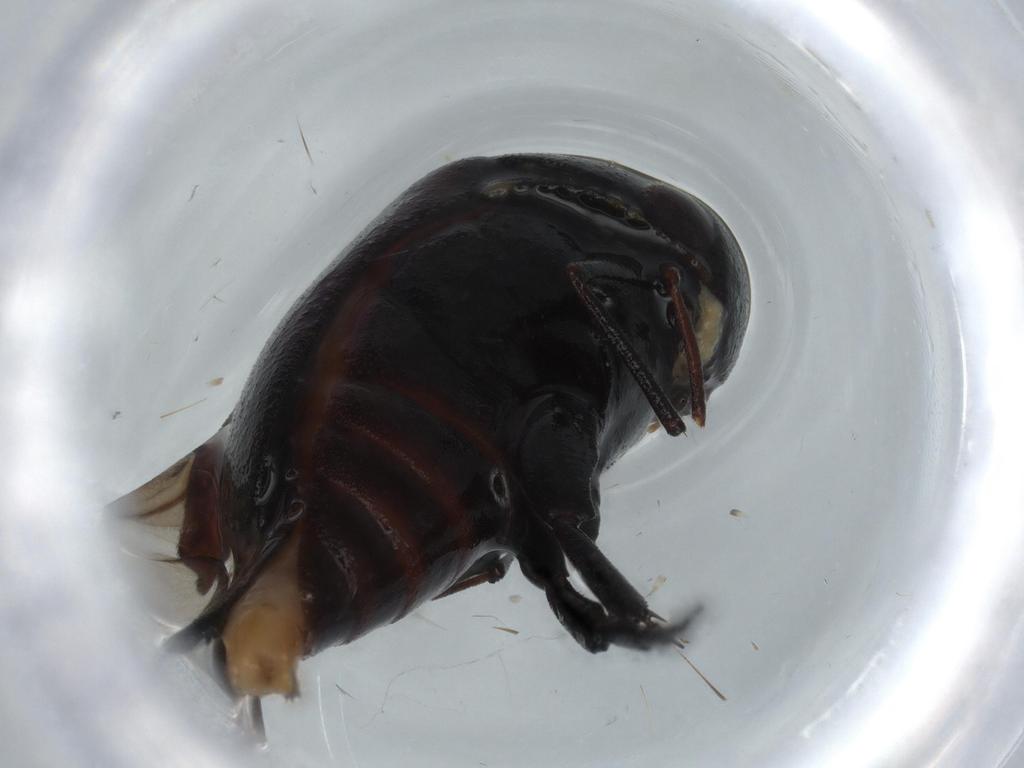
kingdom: Animalia
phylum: Arthropoda
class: Insecta
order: Coleoptera
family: Mordellidae
